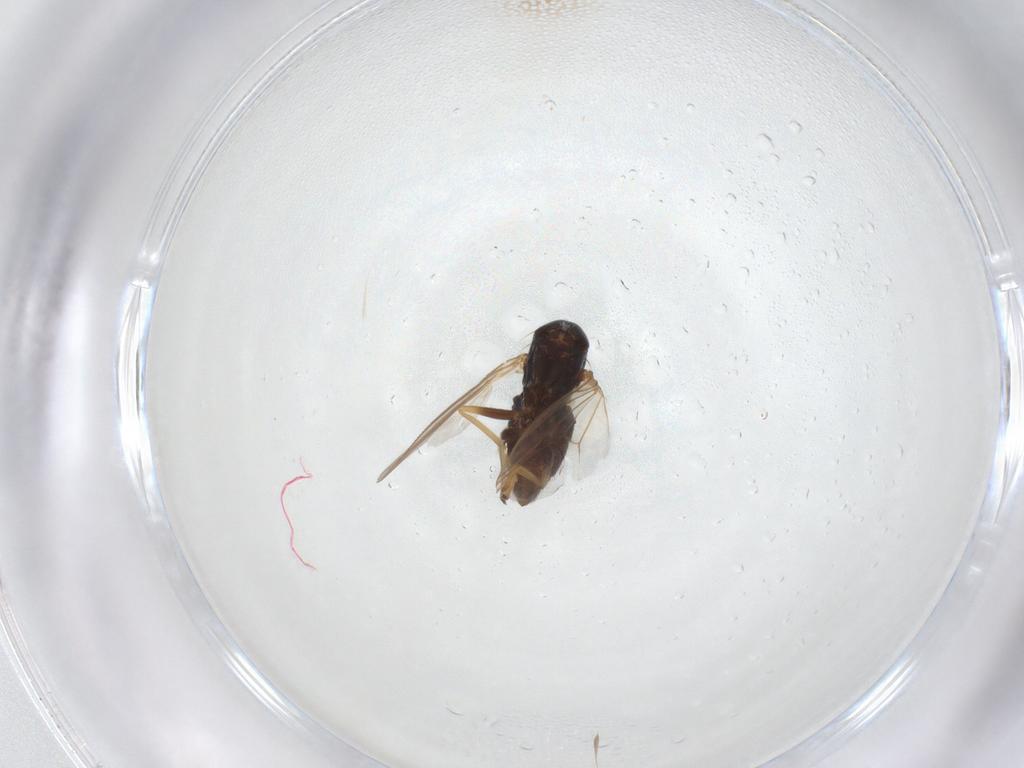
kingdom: Animalia
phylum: Arthropoda
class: Insecta
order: Diptera
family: Dolichopodidae
